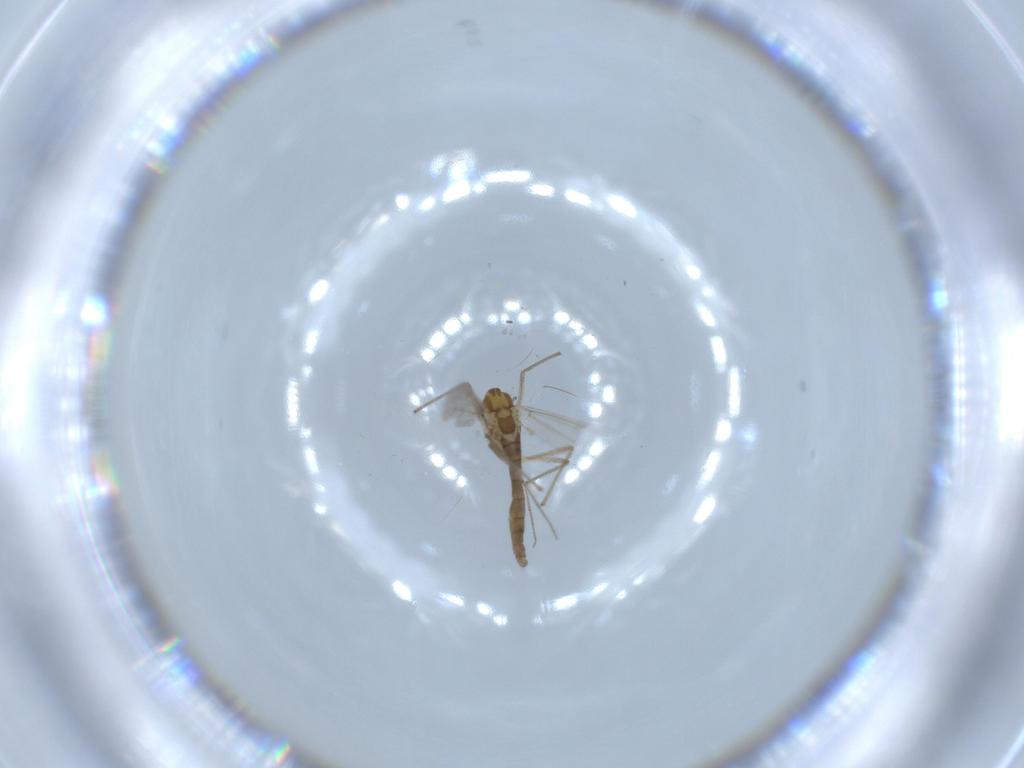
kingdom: Animalia
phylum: Arthropoda
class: Insecta
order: Diptera
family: Chironomidae
